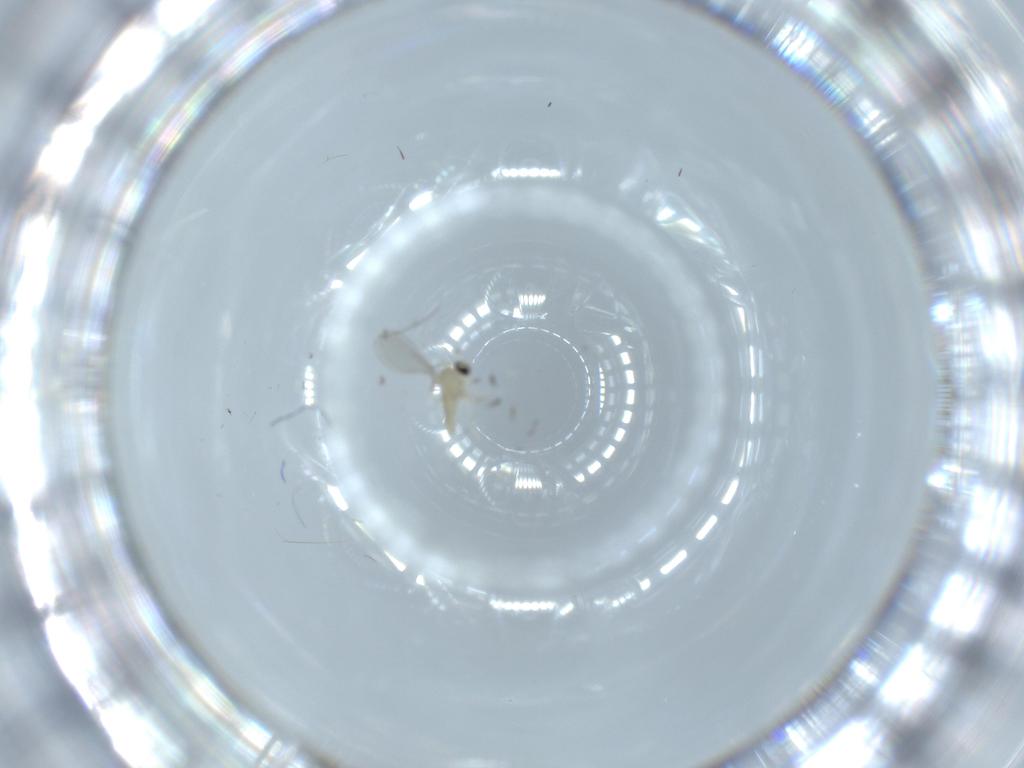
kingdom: Animalia
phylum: Arthropoda
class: Insecta
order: Diptera
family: Cecidomyiidae
